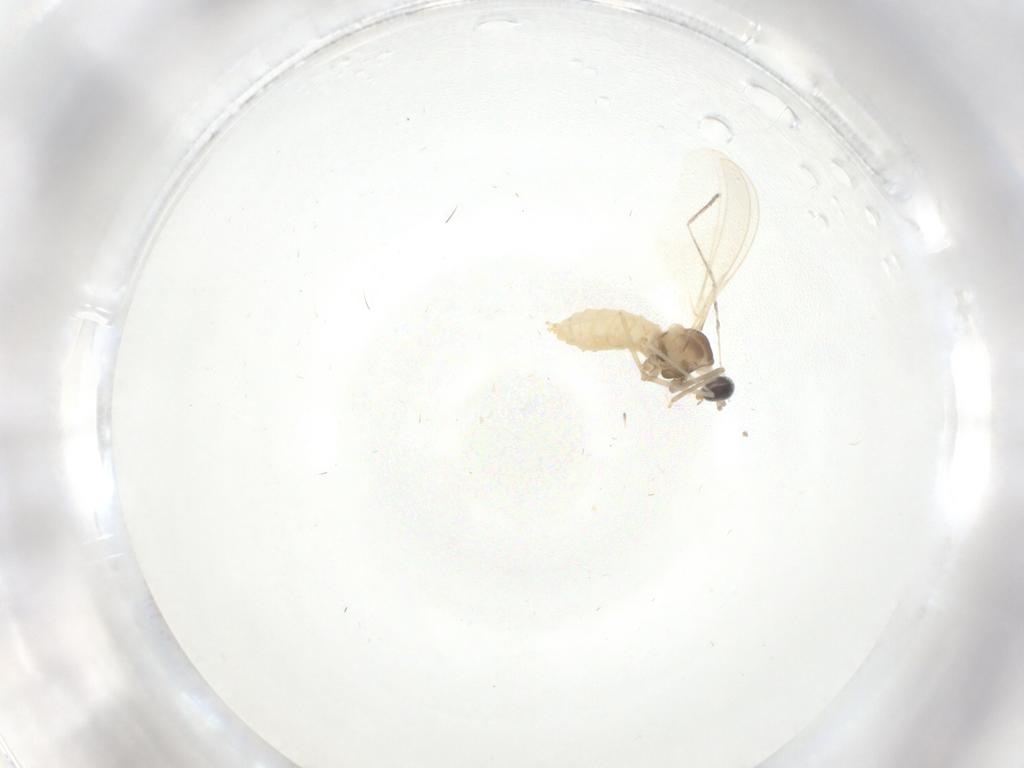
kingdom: Animalia
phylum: Arthropoda
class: Insecta
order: Diptera
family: Cecidomyiidae
